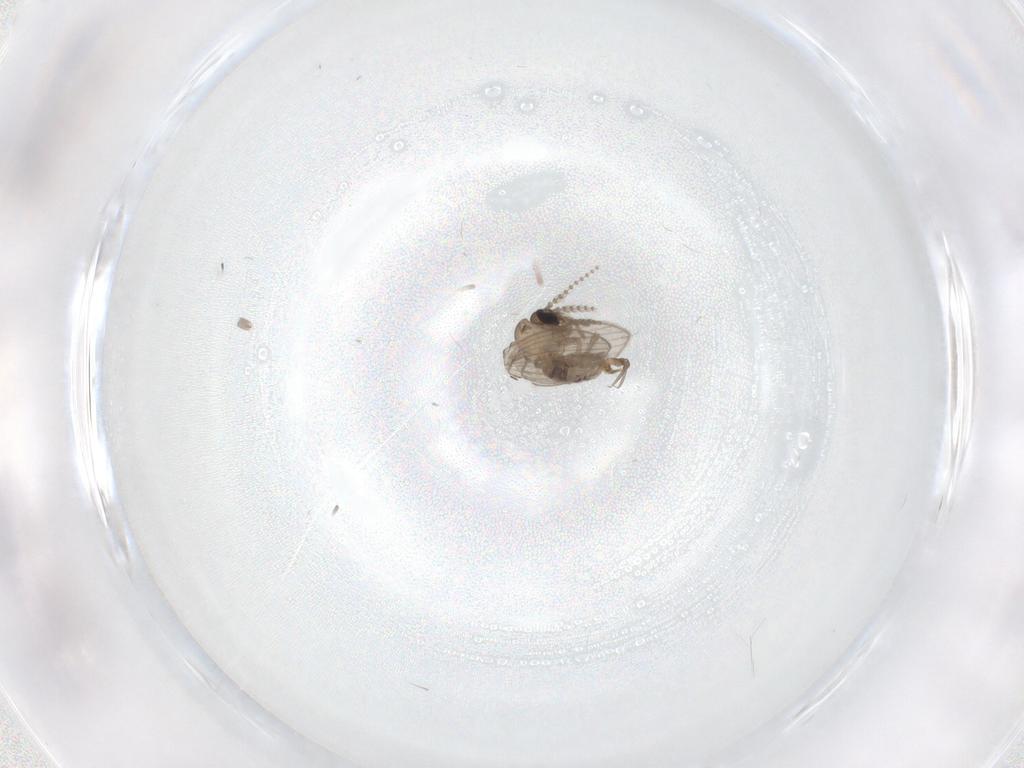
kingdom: Animalia
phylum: Arthropoda
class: Insecta
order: Diptera
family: Psychodidae
